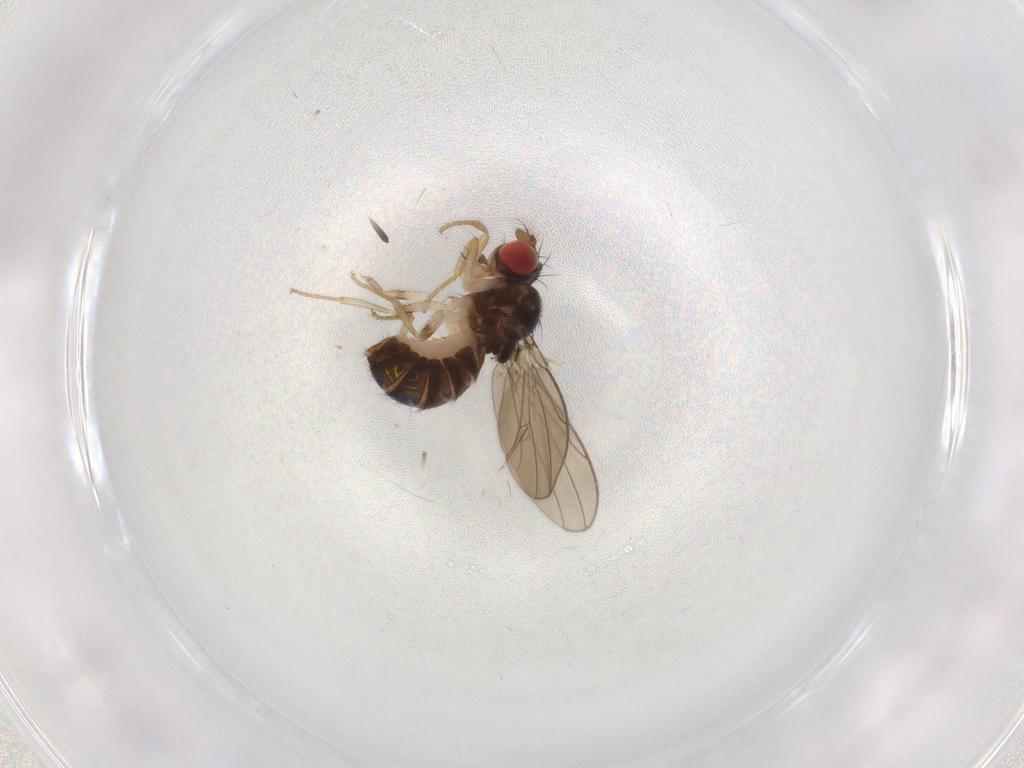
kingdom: Animalia
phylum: Arthropoda
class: Insecta
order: Diptera
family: Drosophilidae
